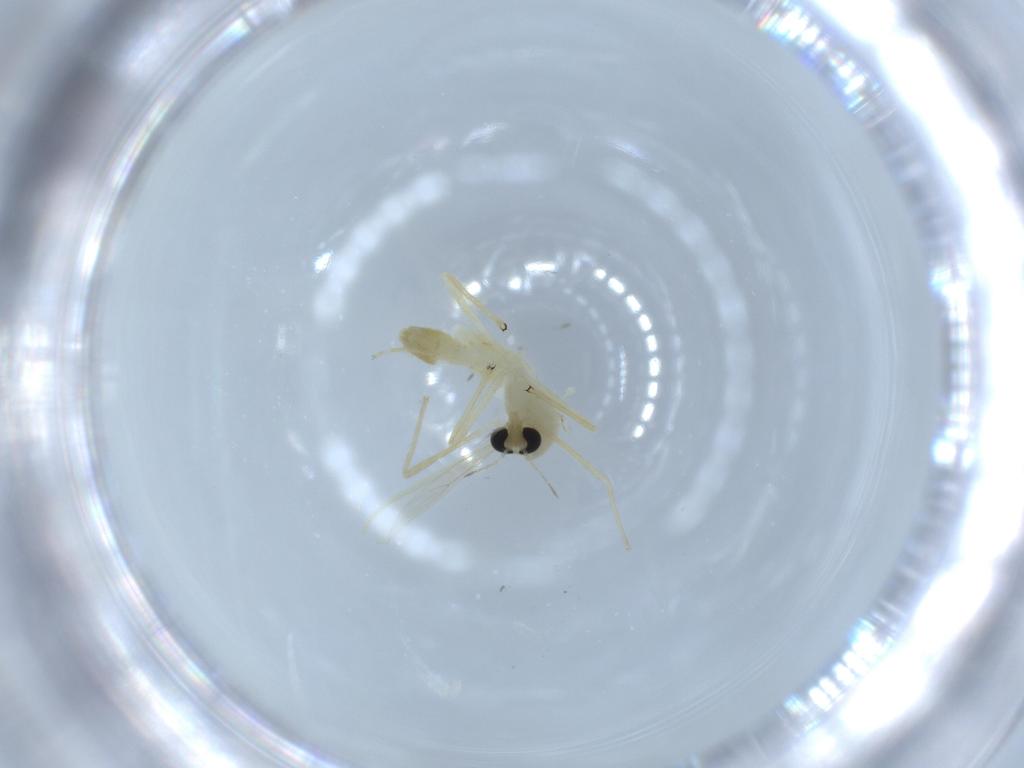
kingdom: Animalia
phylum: Arthropoda
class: Insecta
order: Diptera
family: Chironomidae
